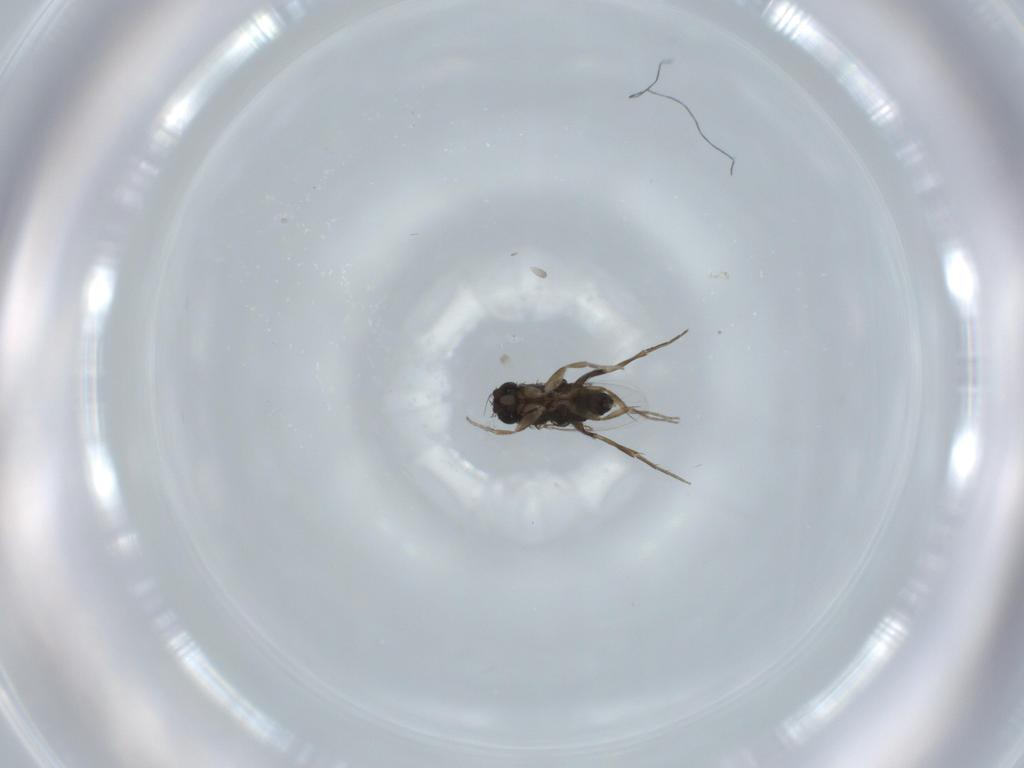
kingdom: Animalia
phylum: Arthropoda
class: Insecta
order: Diptera
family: Phoridae
